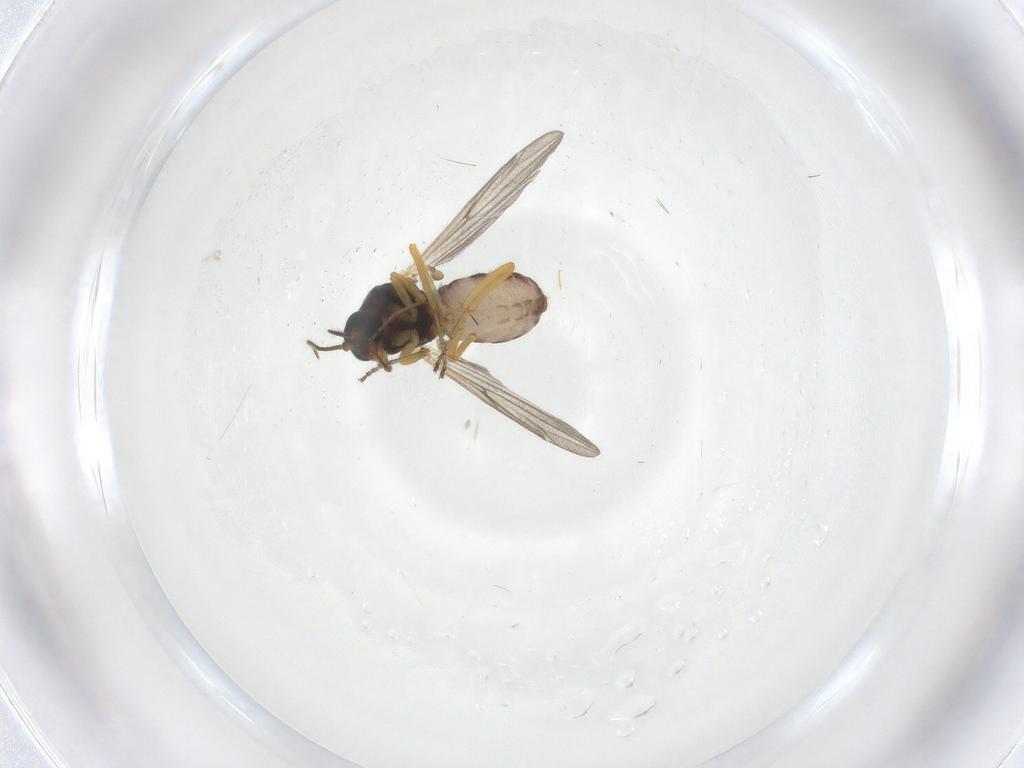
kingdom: Animalia
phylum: Arthropoda
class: Insecta
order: Diptera
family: Ceratopogonidae
